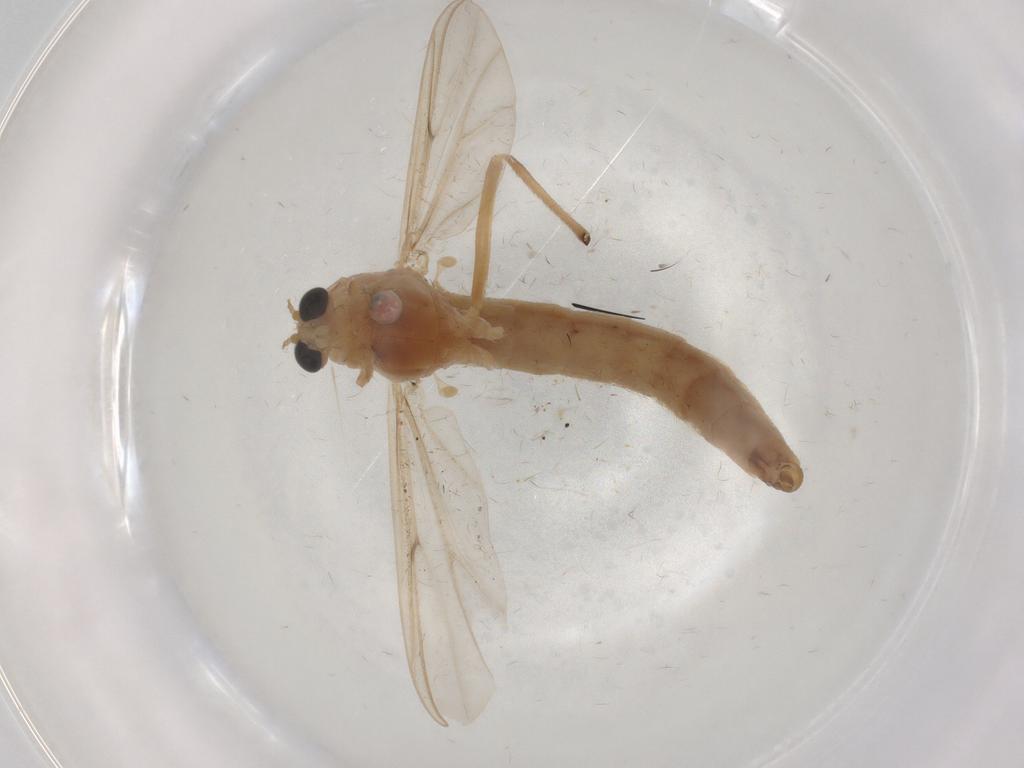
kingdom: Animalia
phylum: Arthropoda
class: Insecta
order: Diptera
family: Chironomidae
